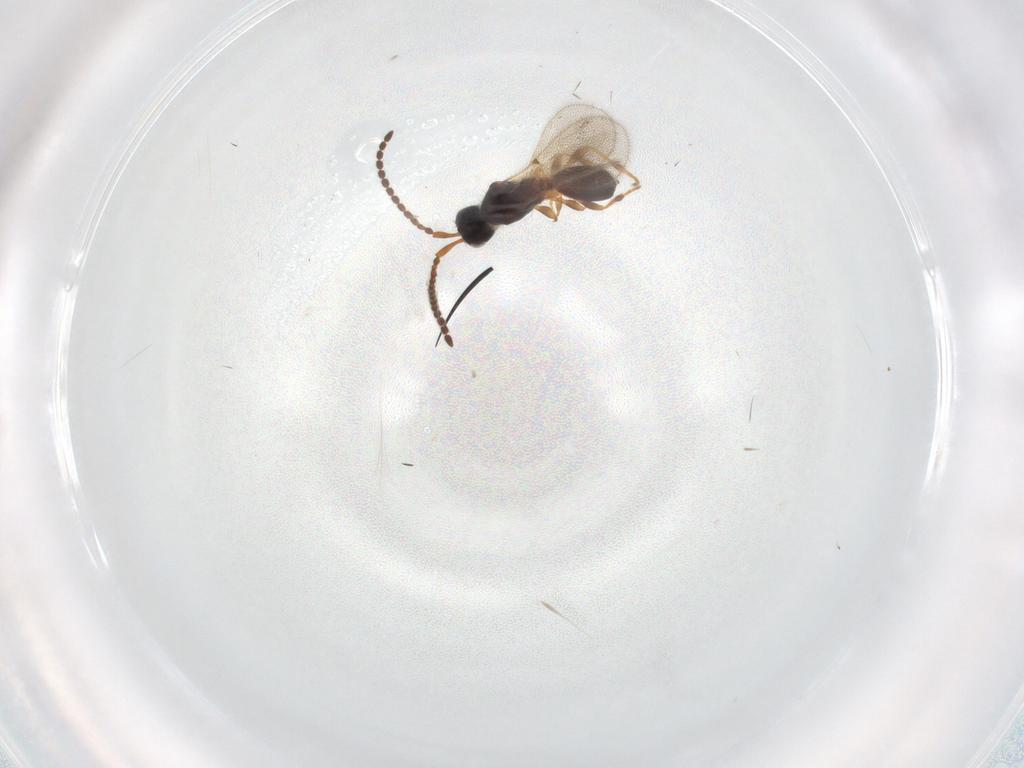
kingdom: Animalia
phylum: Arthropoda
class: Insecta
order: Hymenoptera
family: Diapriidae
